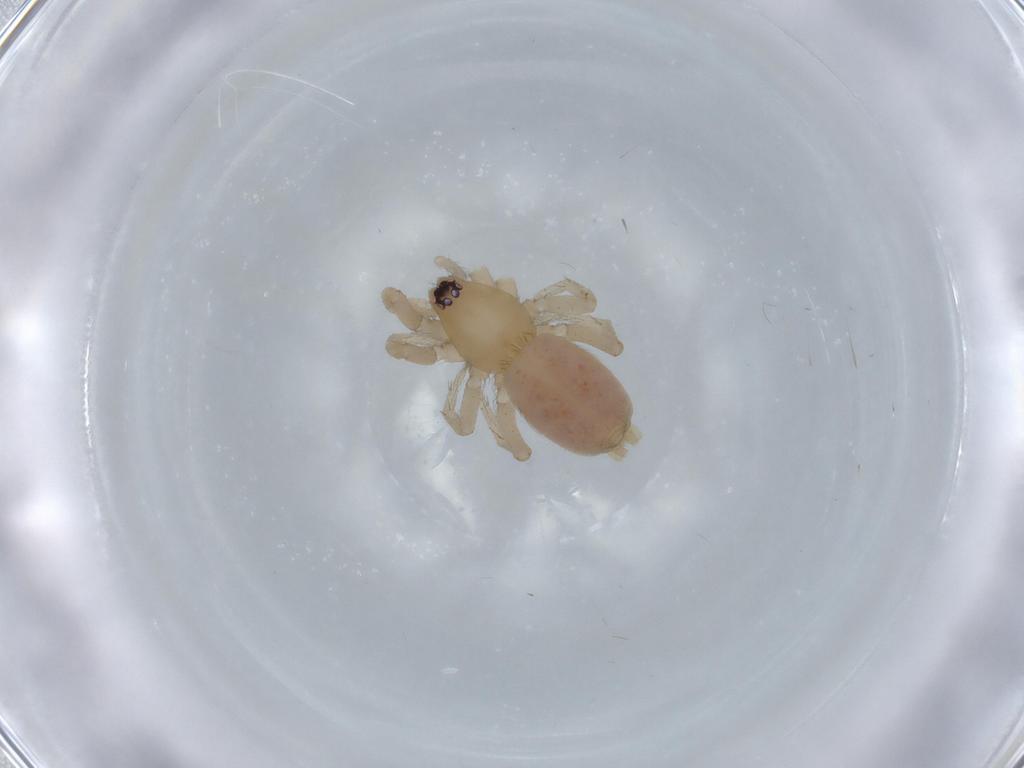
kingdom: Animalia
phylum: Arthropoda
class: Arachnida
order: Araneae
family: Gnaphosidae
